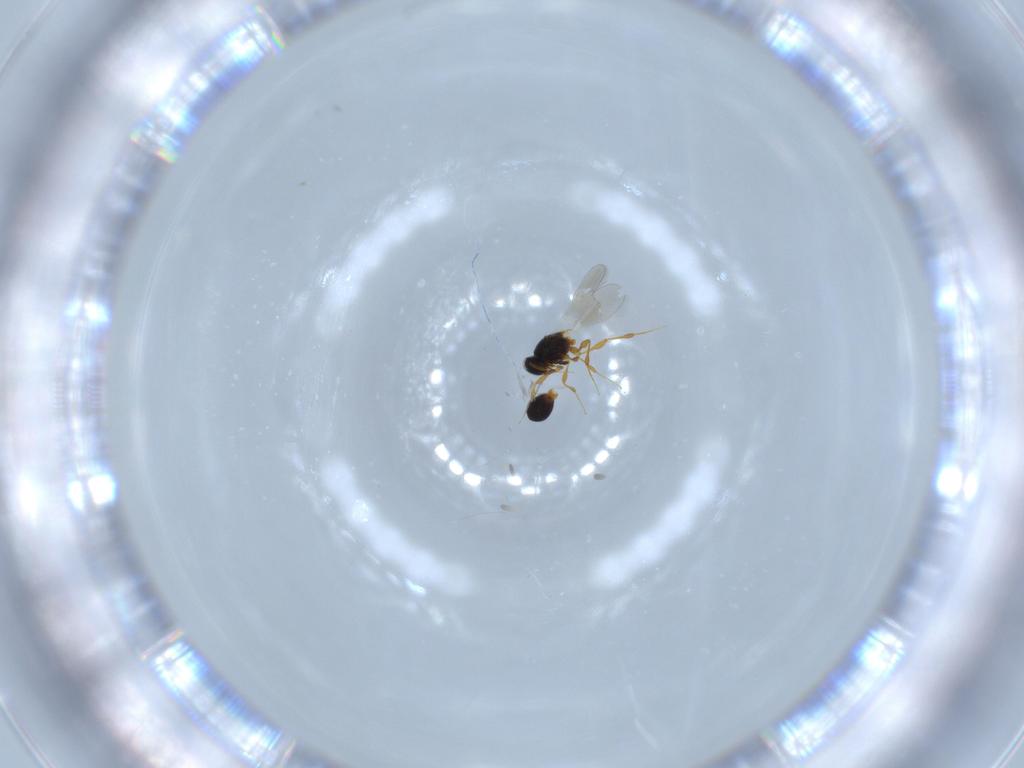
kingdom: Animalia
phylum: Arthropoda
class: Insecta
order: Hymenoptera
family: Platygastridae
